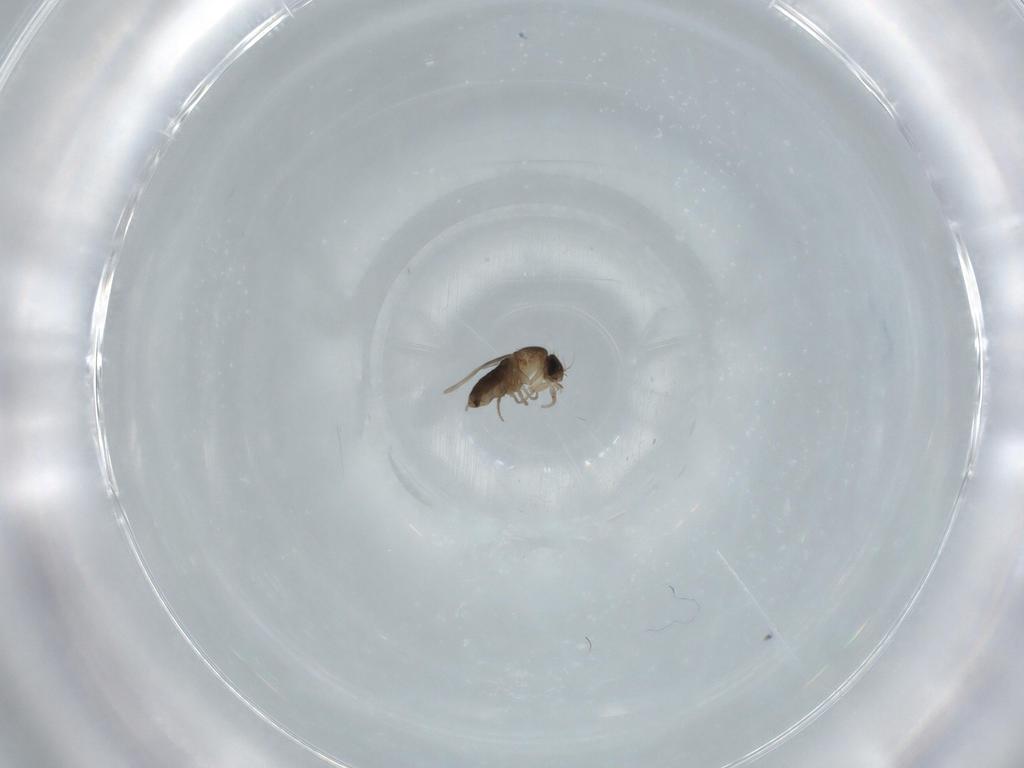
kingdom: Animalia
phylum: Arthropoda
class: Insecta
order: Diptera
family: Phoridae
